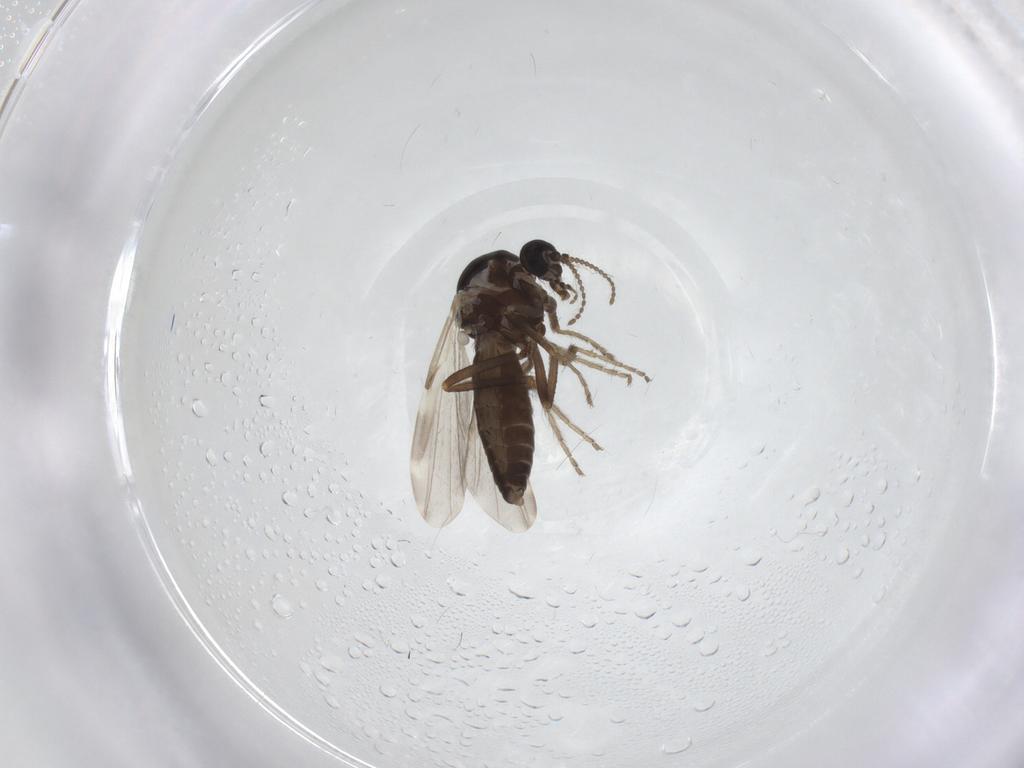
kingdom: Animalia
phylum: Arthropoda
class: Insecta
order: Diptera
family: Ceratopogonidae
